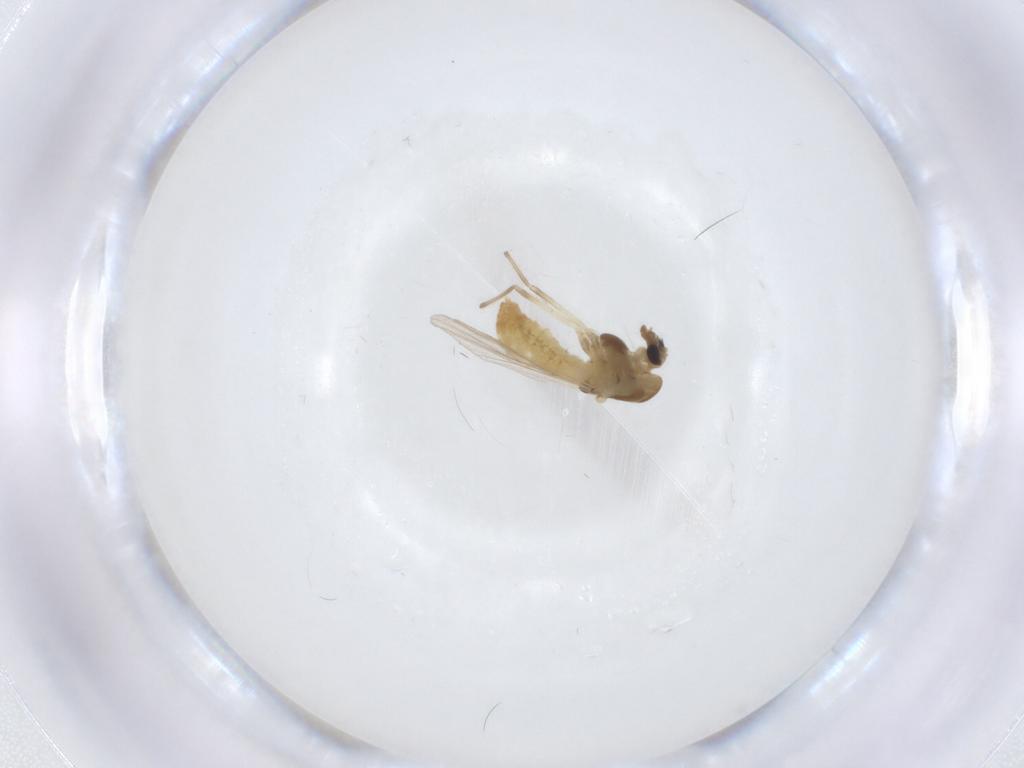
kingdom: Animalia
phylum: Arthropoda
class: Insecta
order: Diptera
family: Chironomidae
